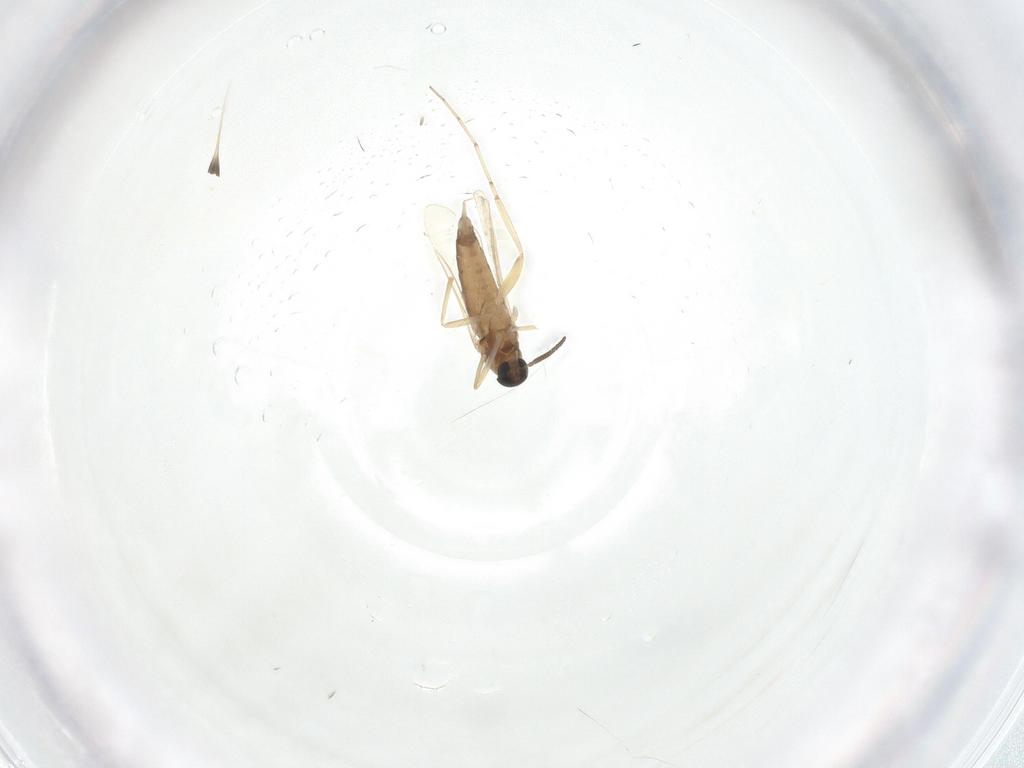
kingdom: Animalia
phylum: Arthropoda
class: Insecta
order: Diptera
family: Cecidomyiidae
